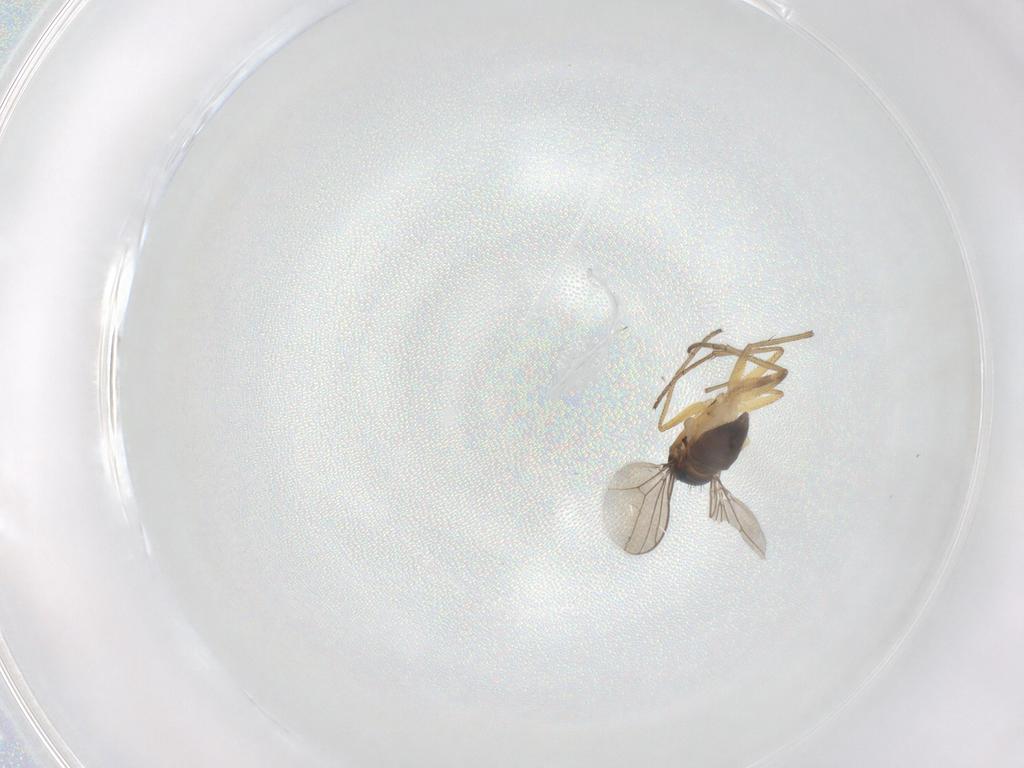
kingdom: Animalia
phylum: Arthropoda
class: Insecta
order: Diptera
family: Dolichopodidae
